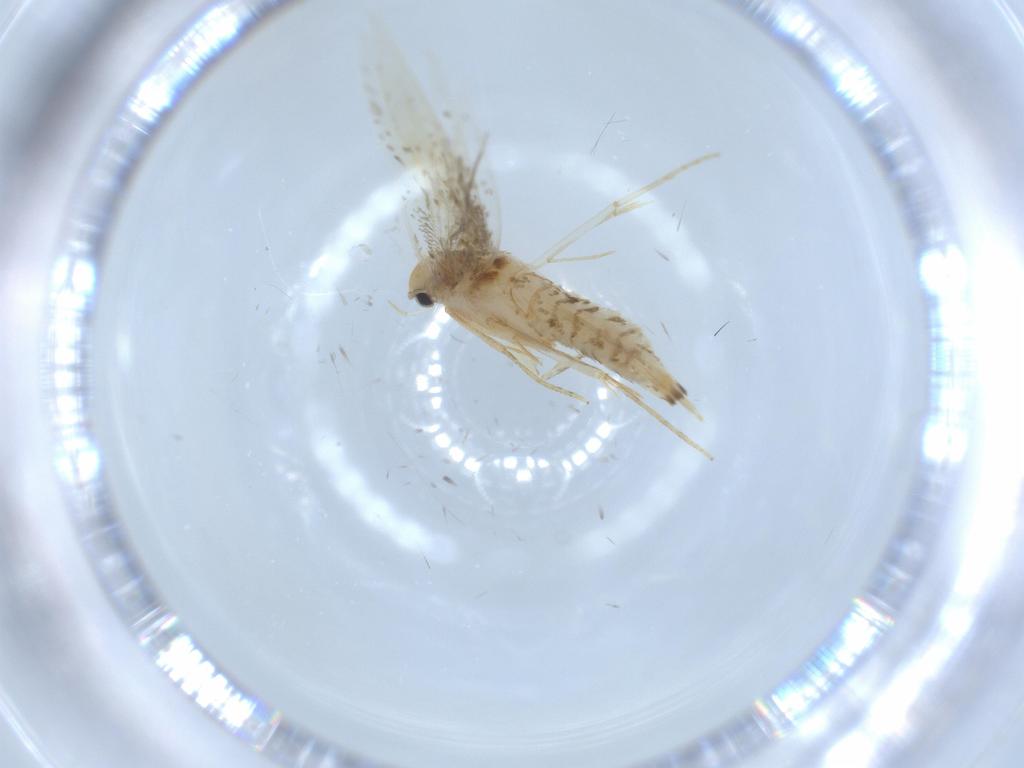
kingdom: Animalia
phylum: Arthropoda
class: Insecta
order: Lepidoptera
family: Tineidae
